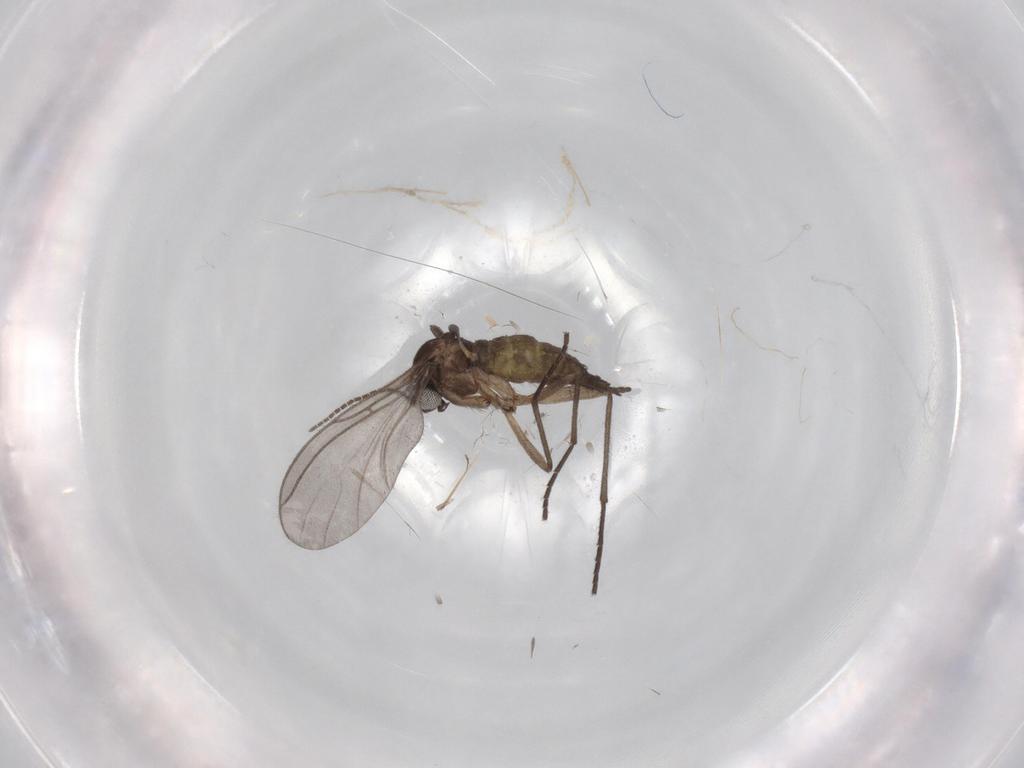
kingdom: Animalia
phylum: Arthropoda
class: Insecta
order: Diptera
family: Sciaridae
